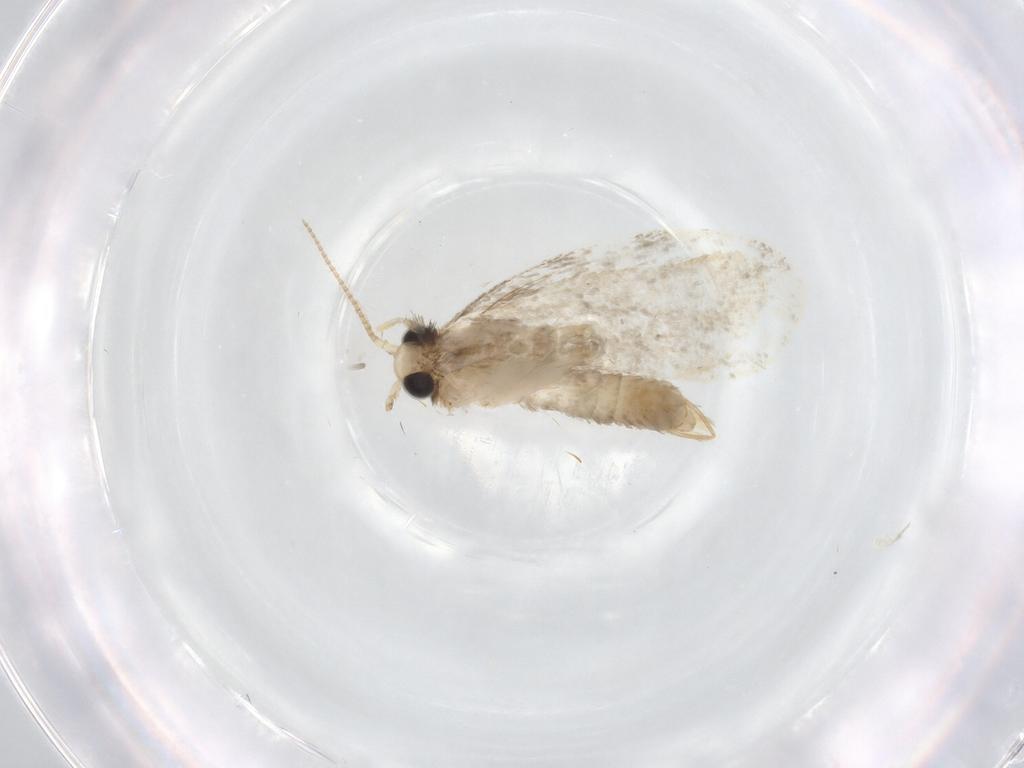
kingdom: Animalia
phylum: Arthropoda
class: Insecta
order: Lepidoptera
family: Psychidae
